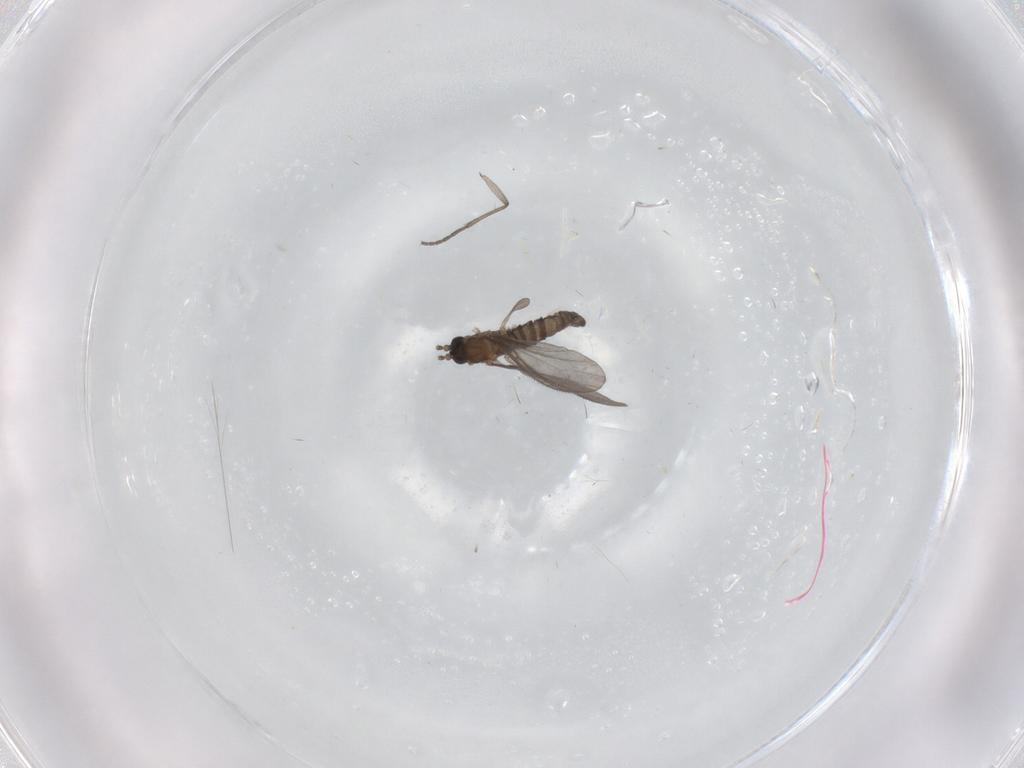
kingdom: Animalia
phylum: Arthropoda
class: Insecta
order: Diptera
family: Sciaridae
